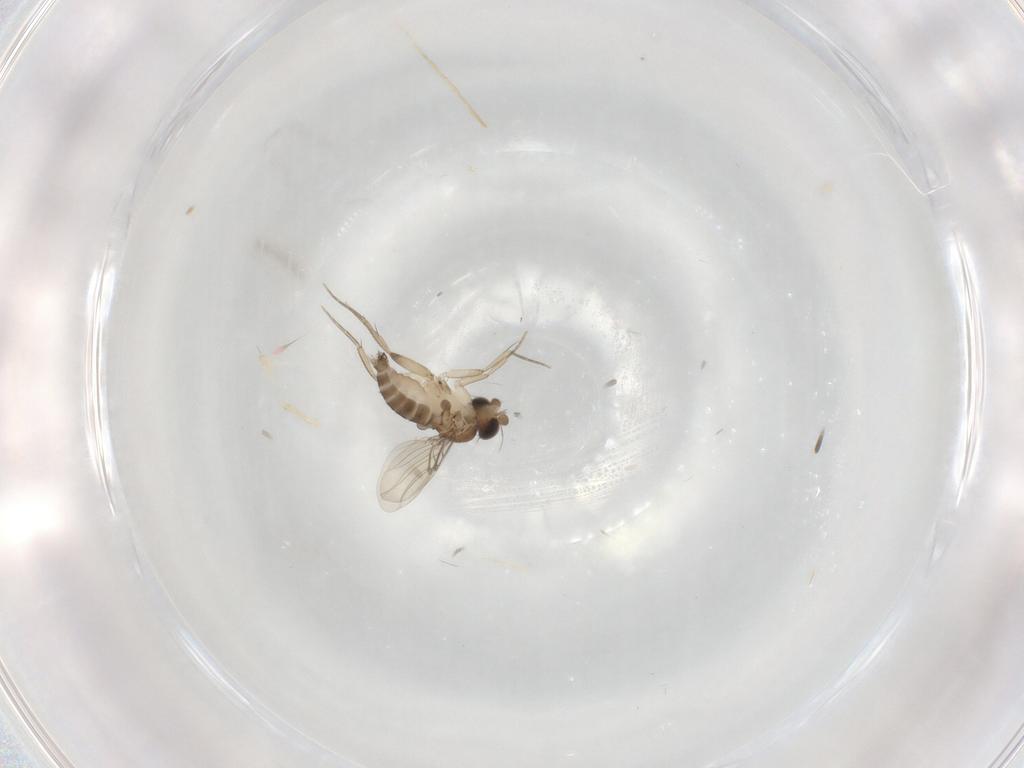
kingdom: Animalia
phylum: Arthropoda
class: Insecta
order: Diptera
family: Phoridae
